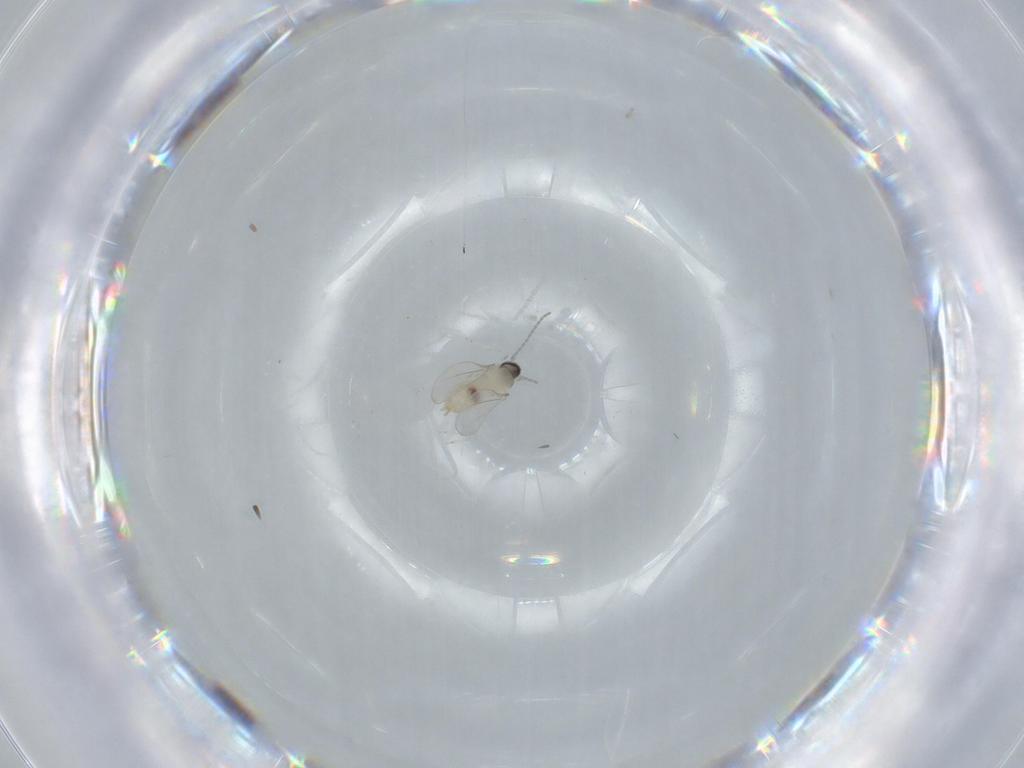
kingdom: Animalia
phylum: Arthropoda
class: Insecta
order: Diptera
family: Cecidomyiidae
